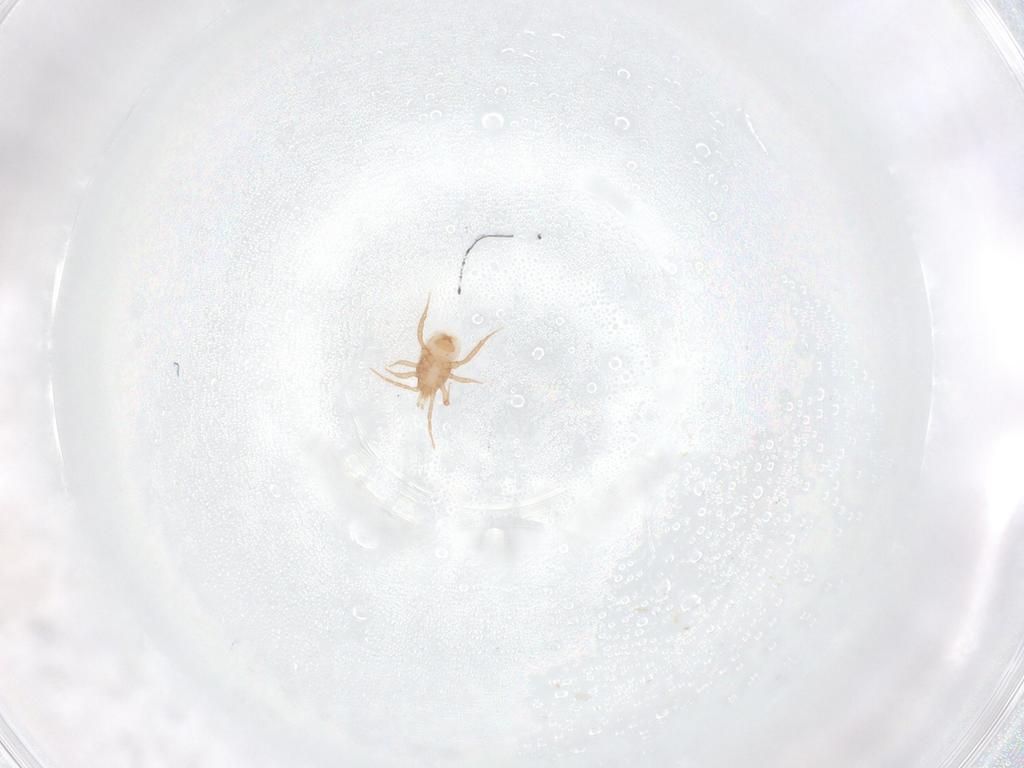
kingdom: Animalia
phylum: Arthropoda
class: Arachnida
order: Mesostigmata
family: Blattisociidae
